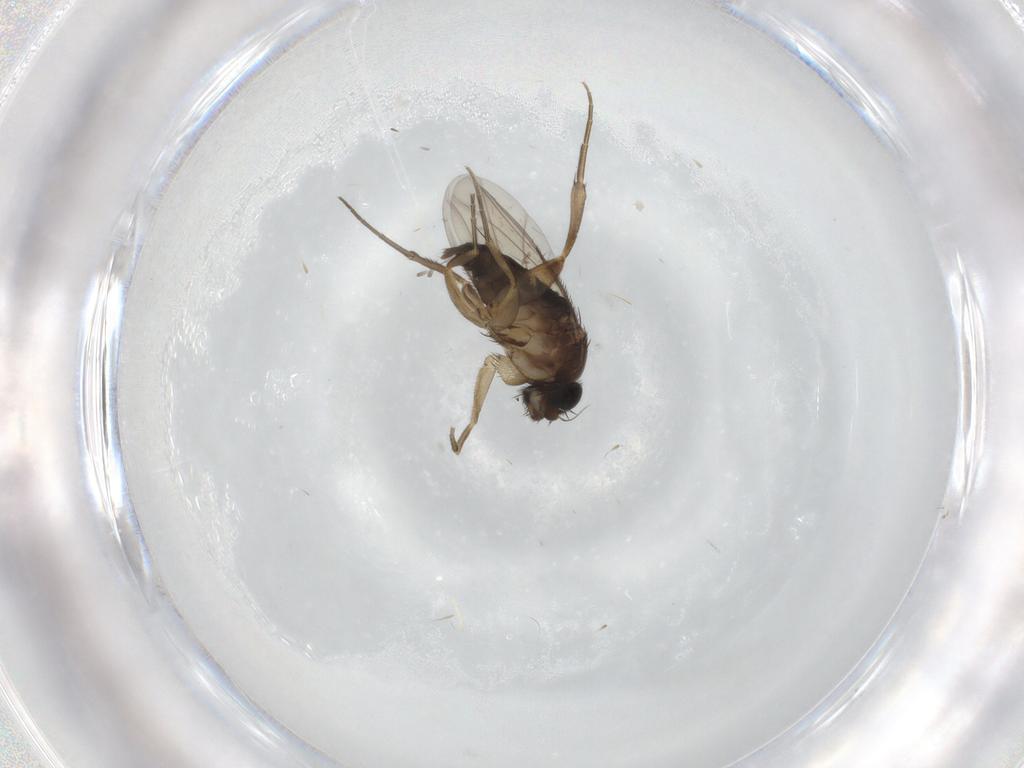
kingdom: Animalia
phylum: Arthropoda
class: Insecta
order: Diptera
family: Phoridae
